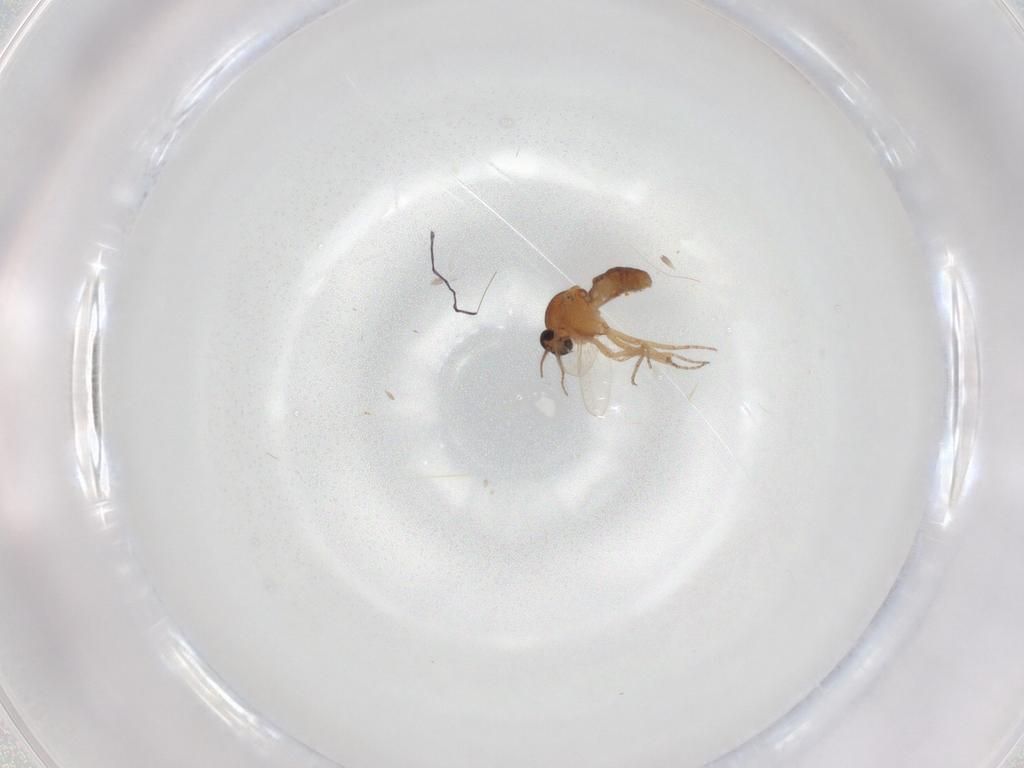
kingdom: Animalia
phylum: Arthropoda
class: Insecta
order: Diptera
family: Ceratopogonidae
